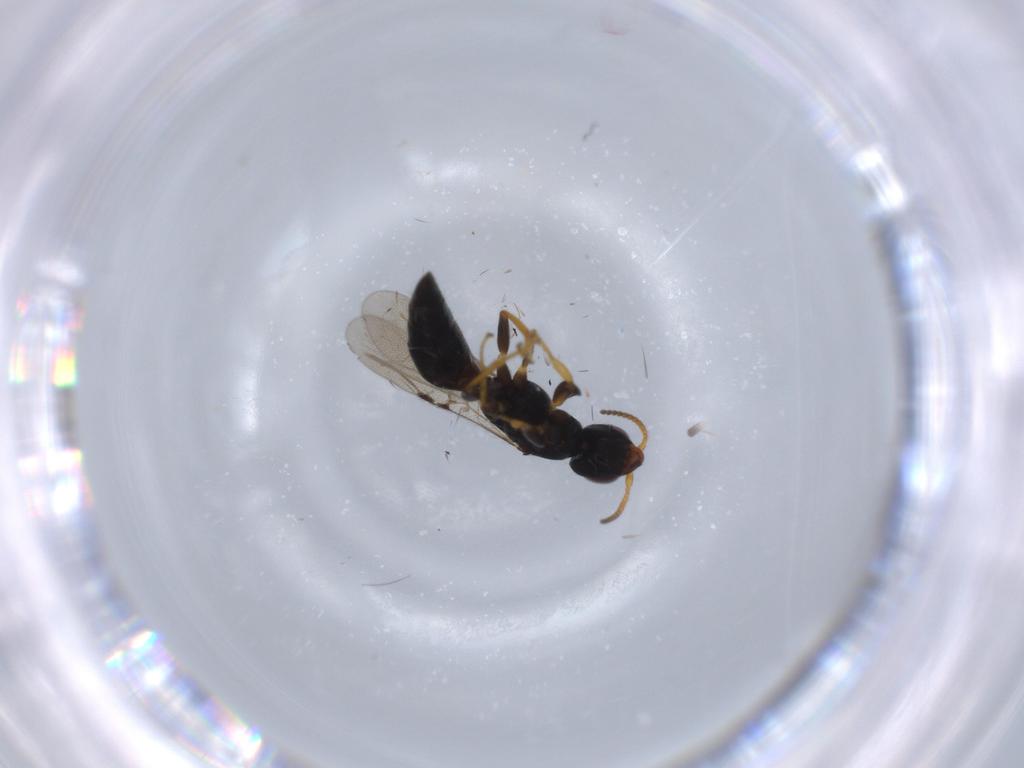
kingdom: Animalia
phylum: Arthropoda
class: Insecta
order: Hymenoptera
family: Bethylidae
